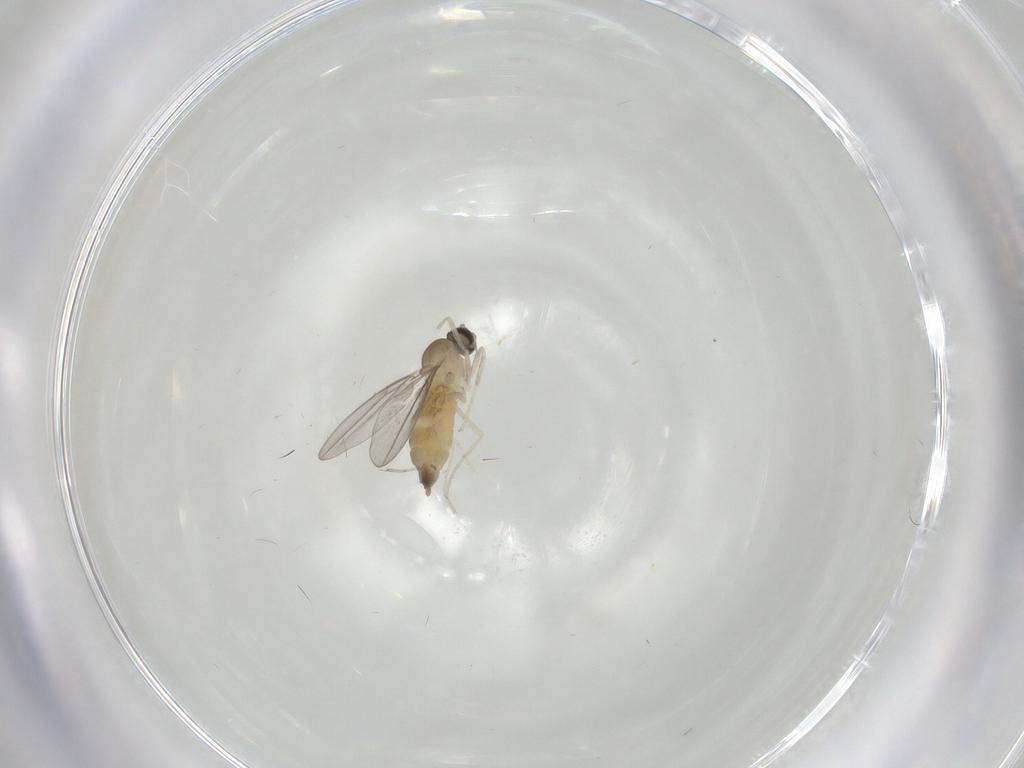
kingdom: Animalia
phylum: Arthropoda
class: Insecta
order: Diptera
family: Cecidomyiidae
